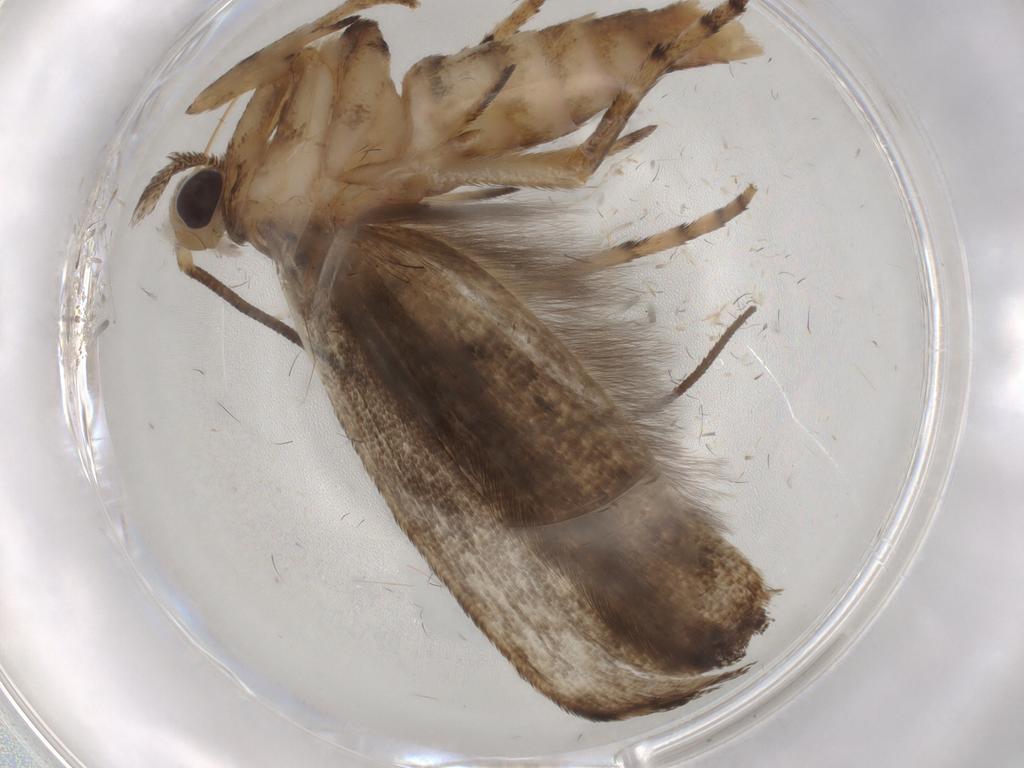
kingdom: Animalia
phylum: Arthropoda
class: Insecta
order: Lepidoptera
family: Yponomeutidae
